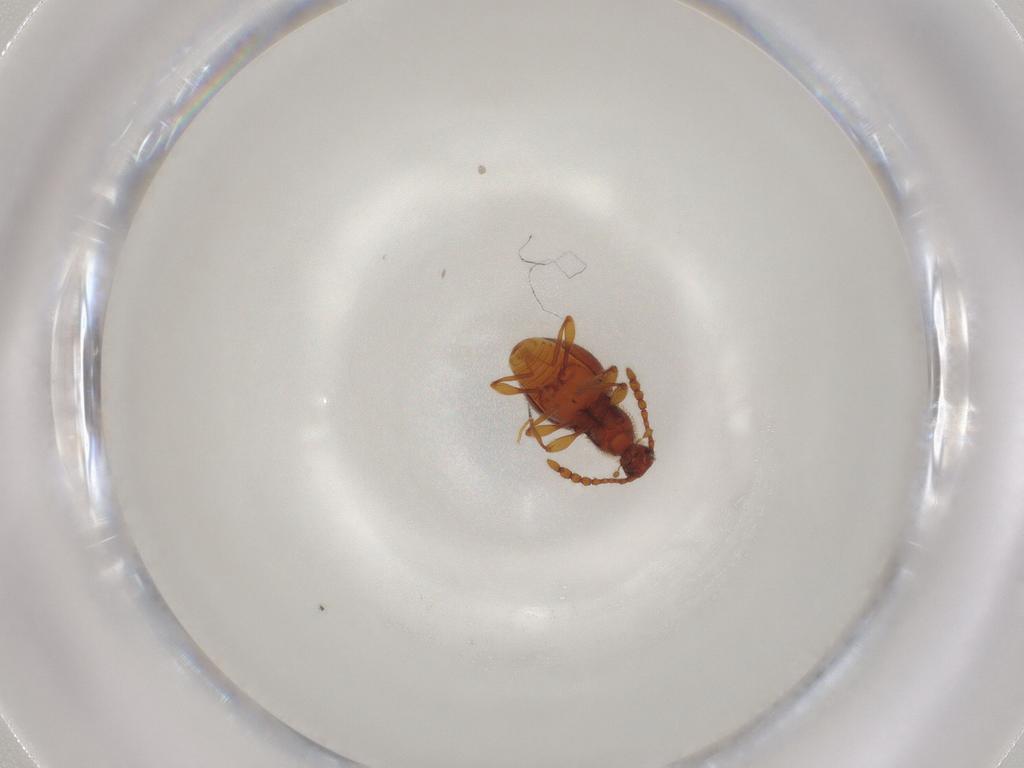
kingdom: Animalia
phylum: Arthropoda
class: Insecta
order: Coleoptera
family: Staphylinidae
